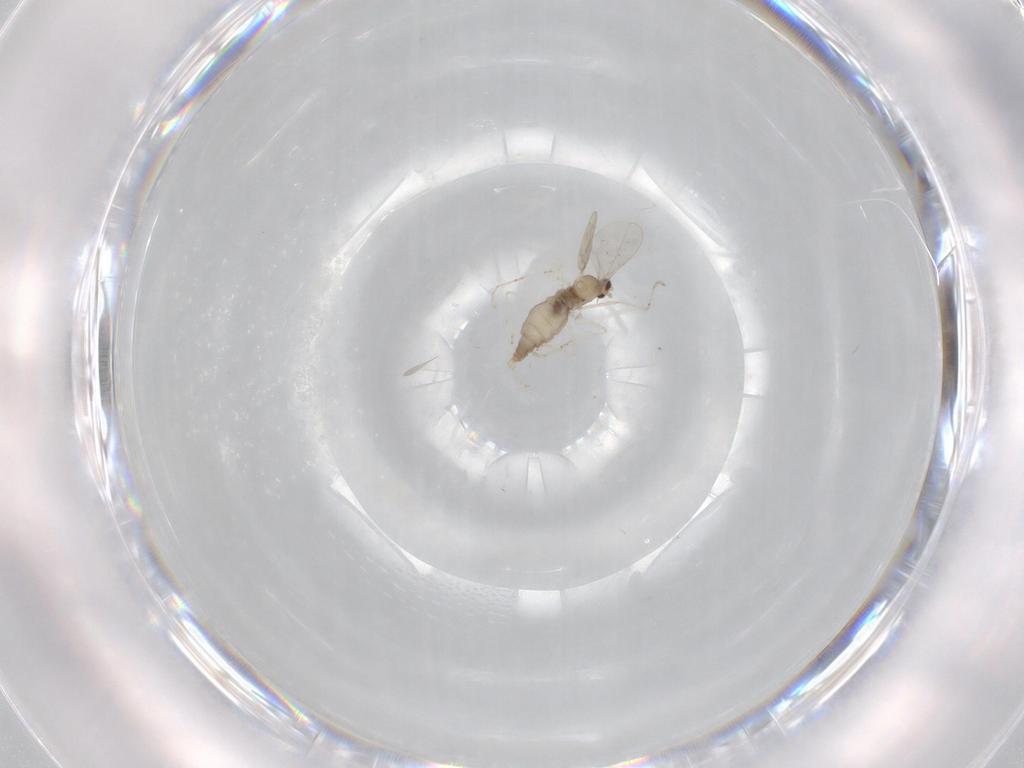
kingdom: Animalia
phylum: Arthropoda
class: Insecta
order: Diptera
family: Cecidomyiidae
